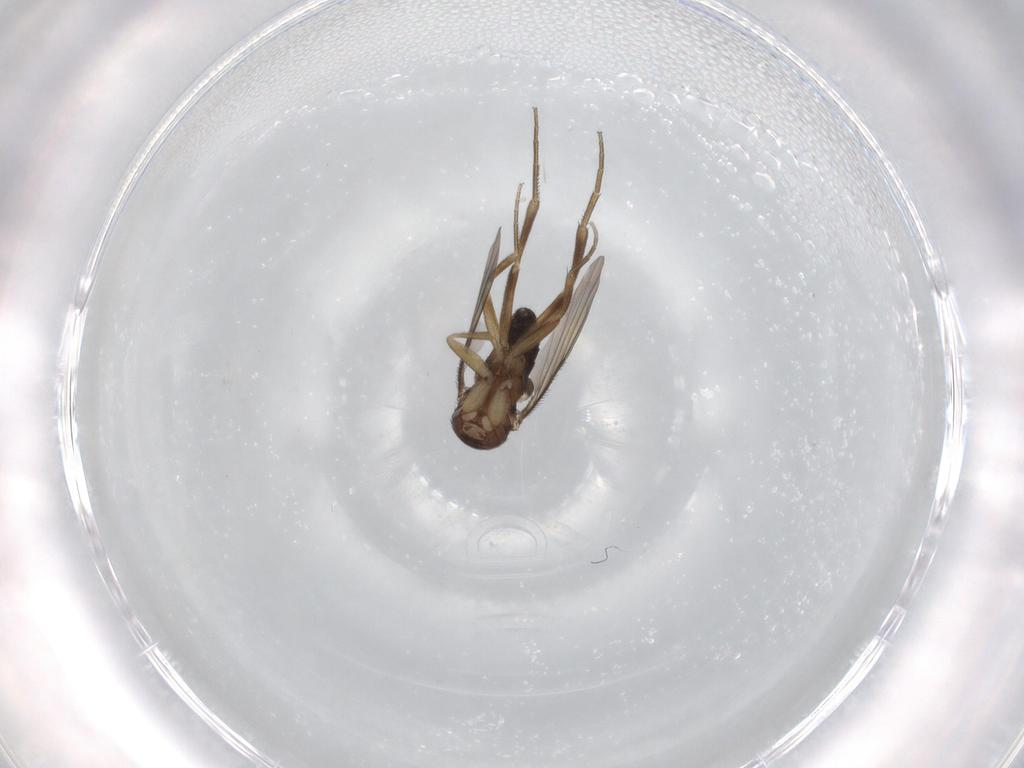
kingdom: Animalia
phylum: Arthropoda
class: Insecta
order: Diptera
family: Phoridae
